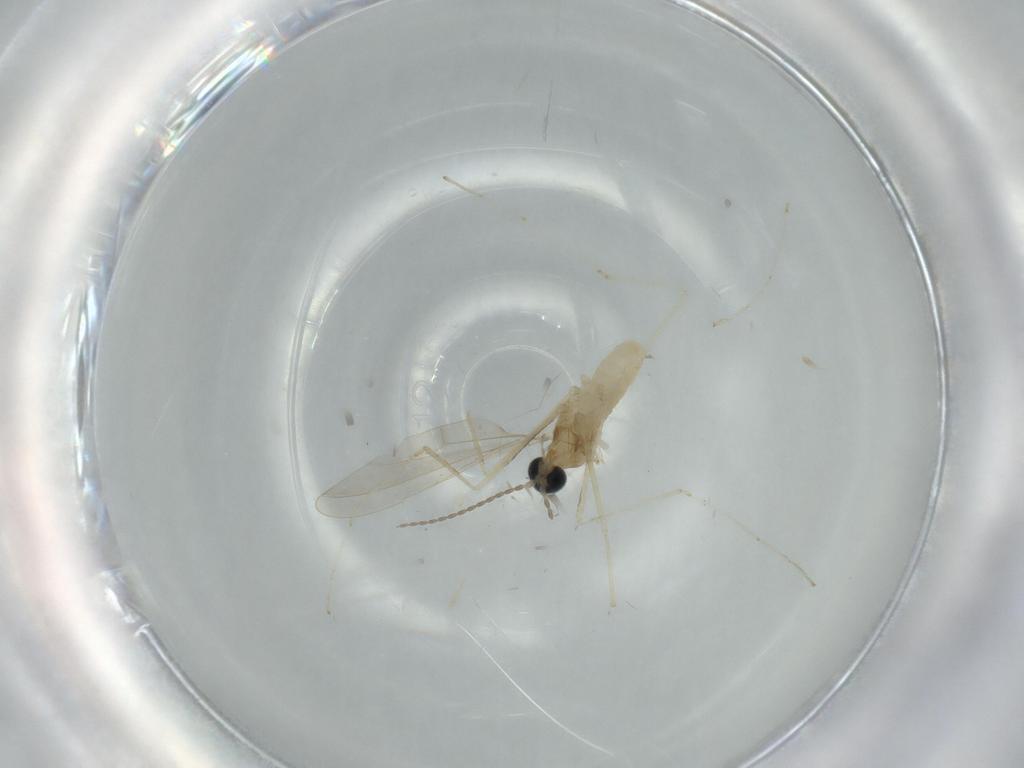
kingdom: Animalia
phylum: Arthropoda
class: Insecta
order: Diptera
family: Cecidomyiidae
